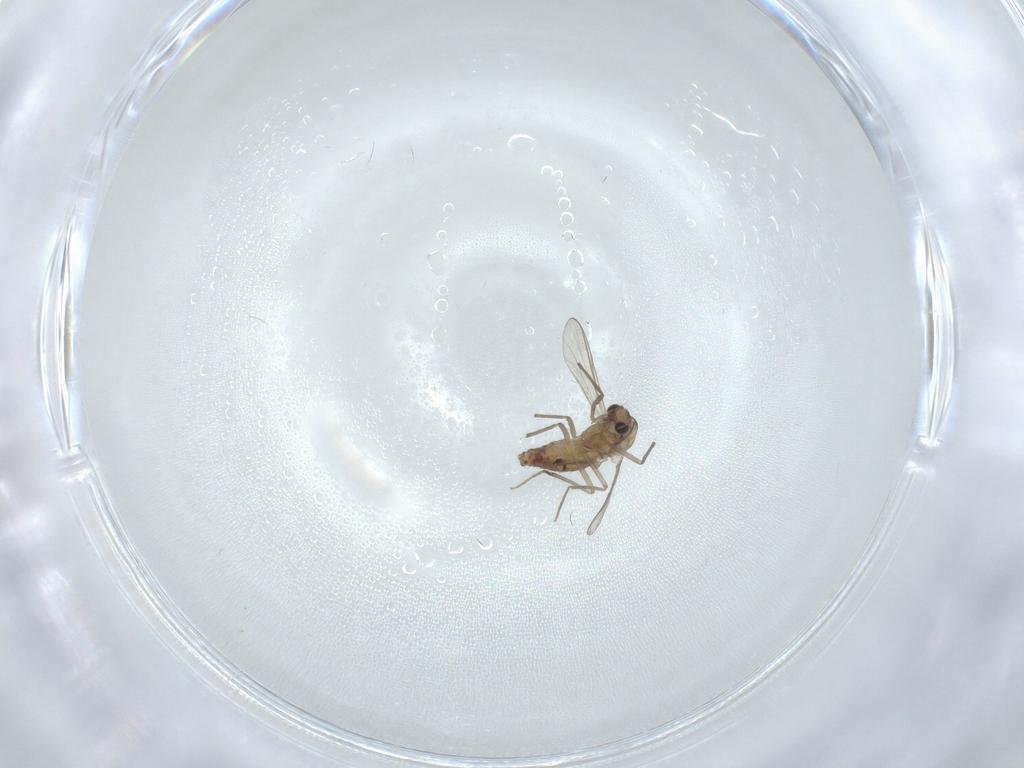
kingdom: Animalia
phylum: Arthropoda
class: Insecta
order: Diptera
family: Chironomidae
